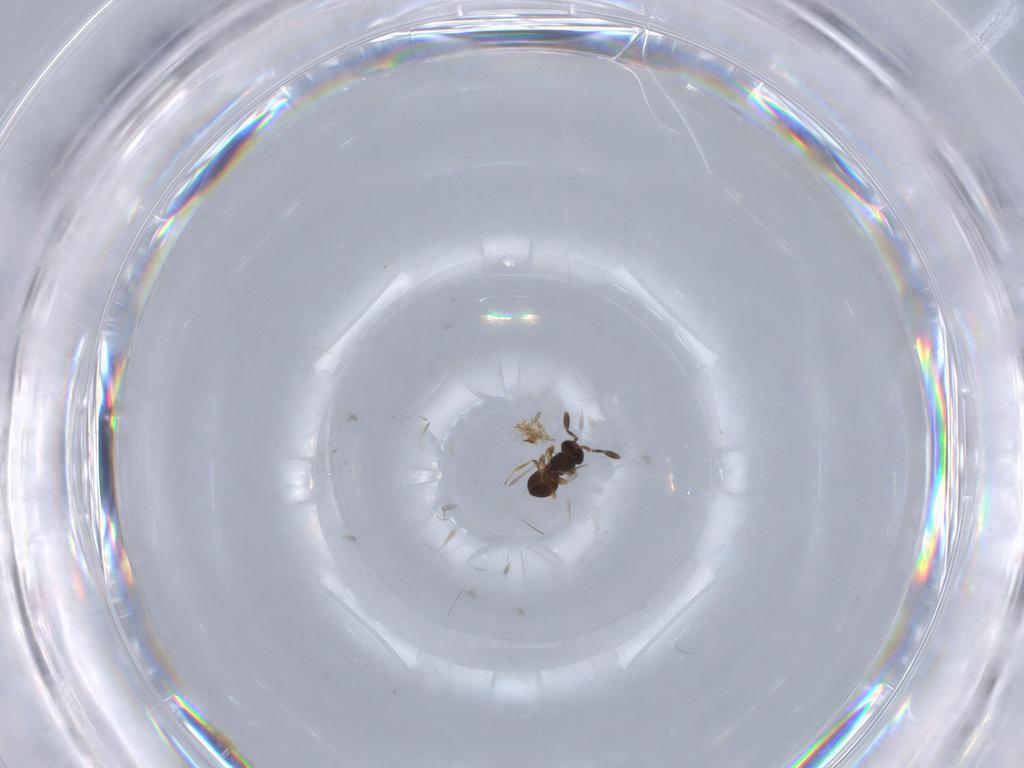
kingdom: Animalia
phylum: Arthropoda
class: Insecta
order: Hymenoptera
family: Scelionidae
